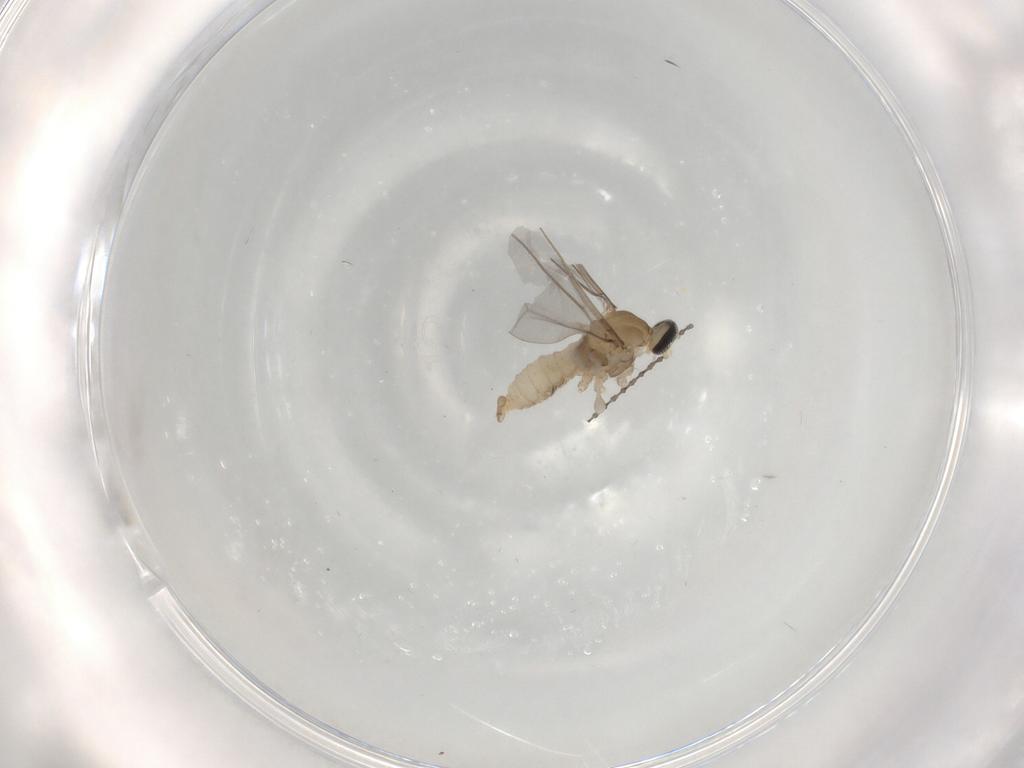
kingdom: Animalia
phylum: Arthropoda
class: Insecta
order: Diptera
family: Cecidomyiidae
